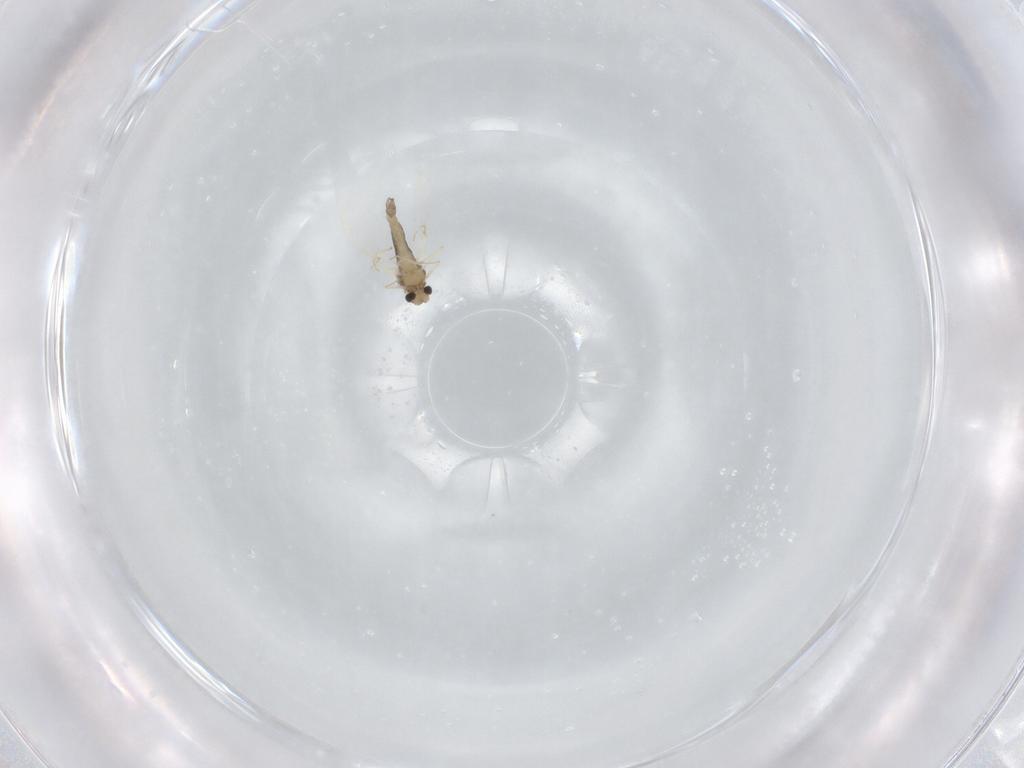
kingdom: Animalia
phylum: Arthropoda
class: Insecta
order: Diptera
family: Chironomidae
